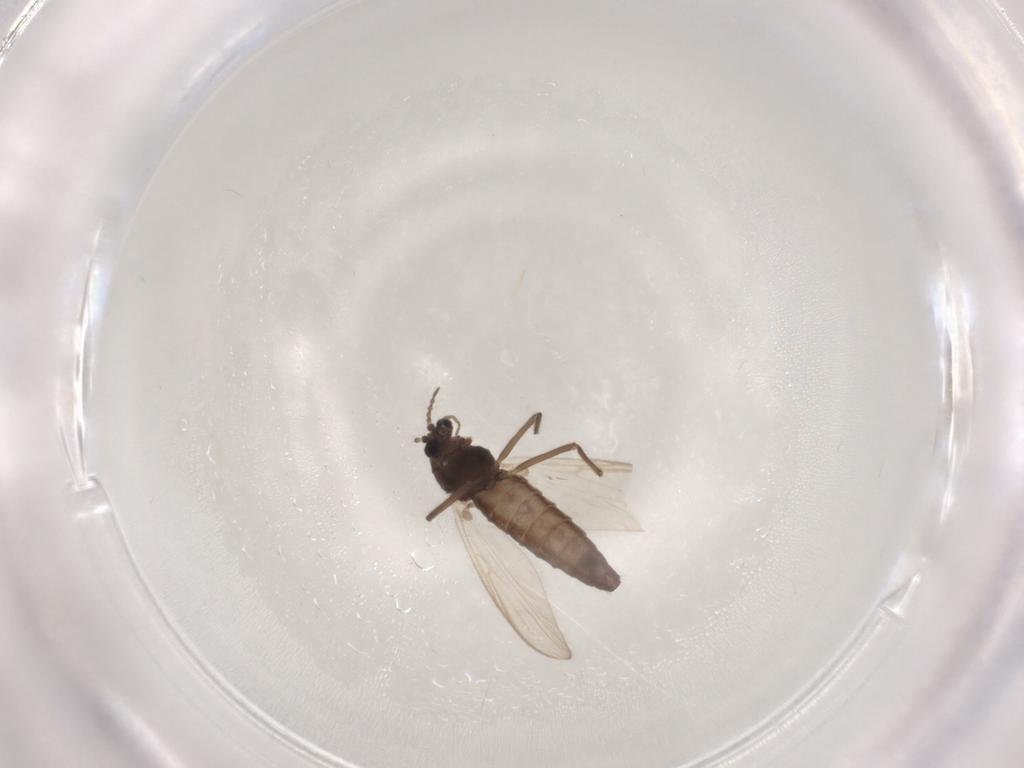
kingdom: Animalia
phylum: Arthropoda
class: Insecta
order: Diptera
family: Chironomidae
